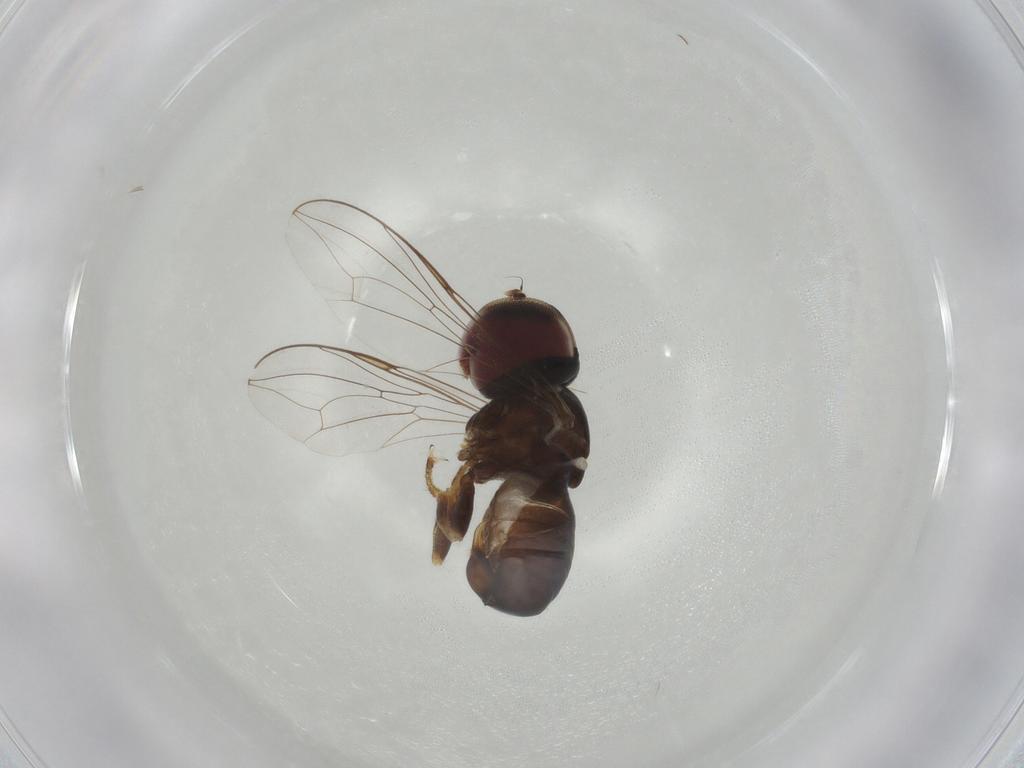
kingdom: Animalia
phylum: Arthropoda
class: Insecta
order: Diptera
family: Pipunculidae
